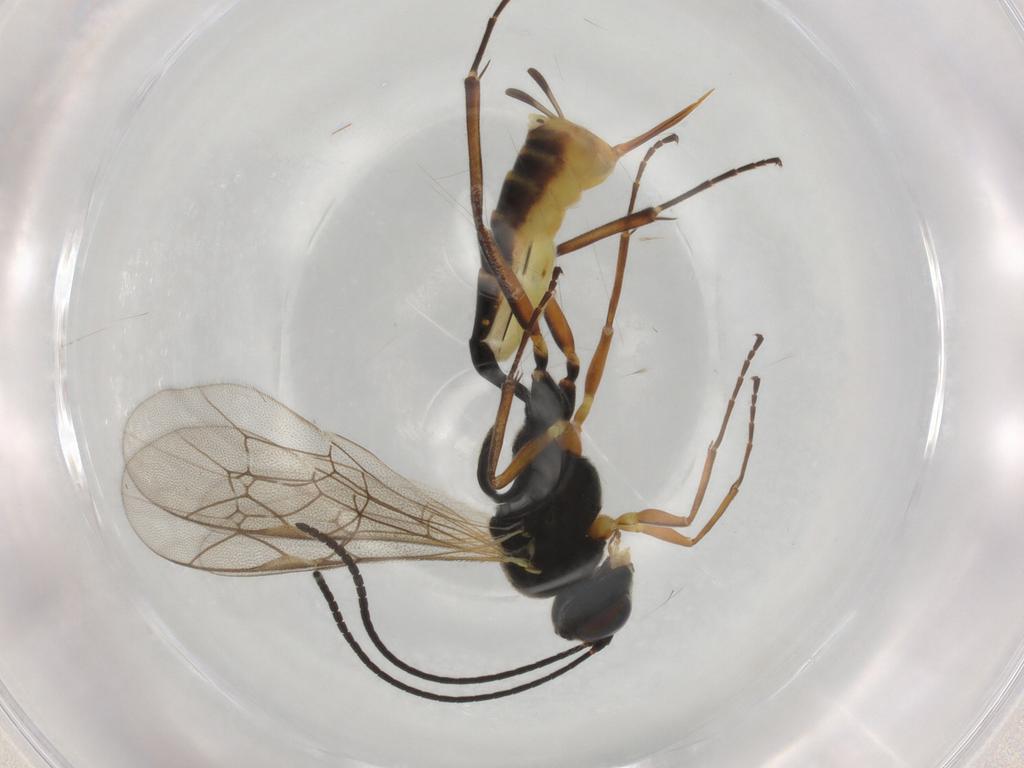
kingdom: Animalia
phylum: Arthropoda
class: Insecta
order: Hymenoptera
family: Ichneumonidae
